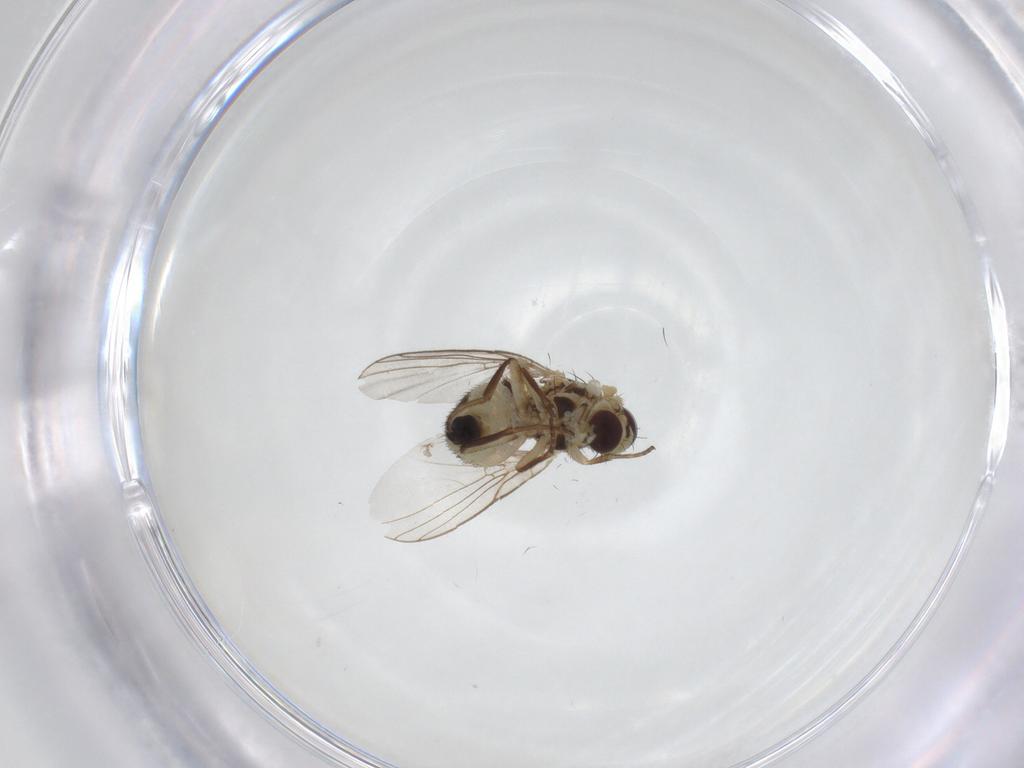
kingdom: Animalia
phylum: Arthropoda
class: Insecta
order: Diptera
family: Agromyzidae
